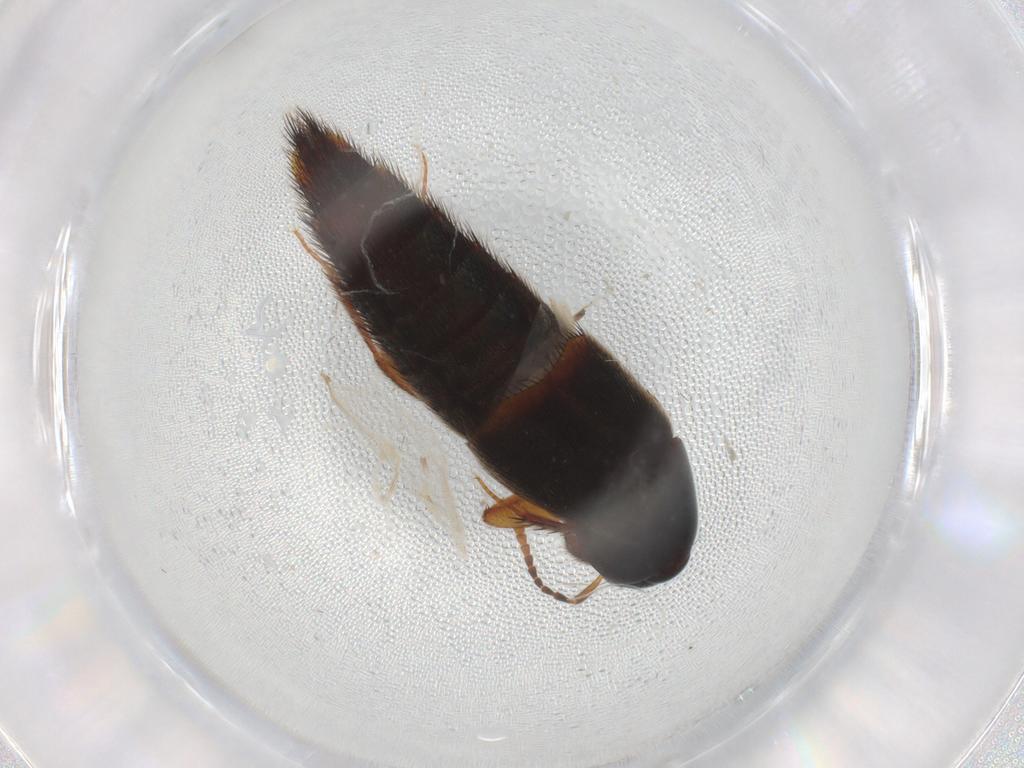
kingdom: Animalia
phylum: Arthropoda
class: Insecta
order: Coleoptera
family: Staphylinidae
